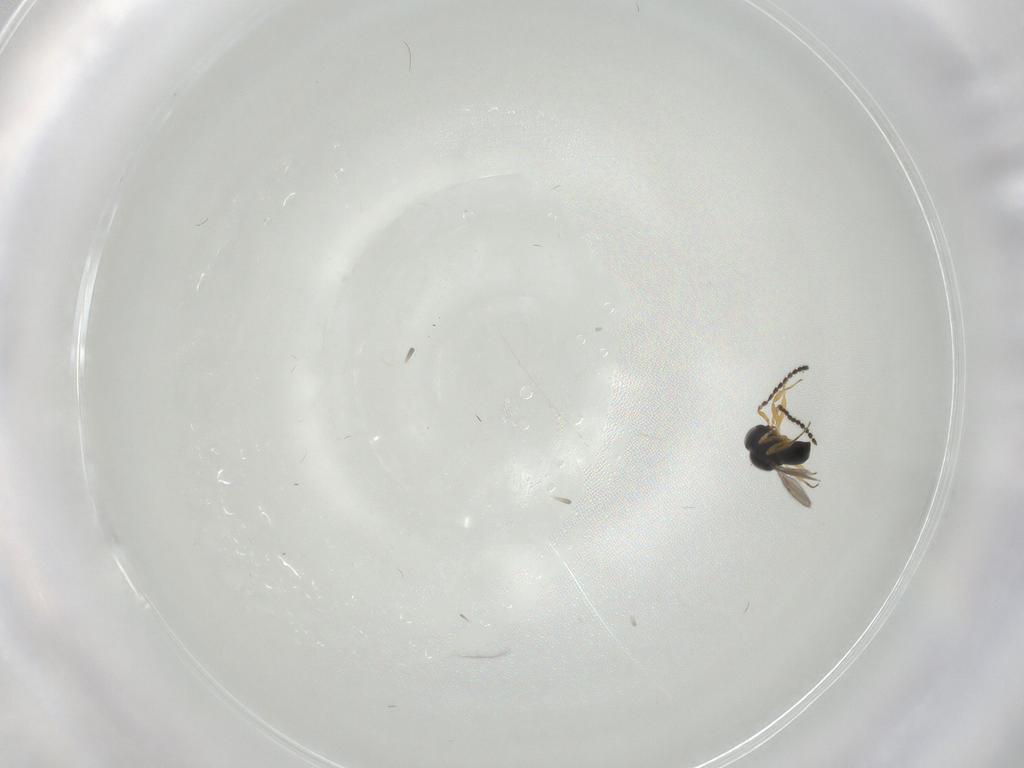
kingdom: Animalia
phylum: Arthropoda
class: Insecta
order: Hymenoptera
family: Scelionidae
